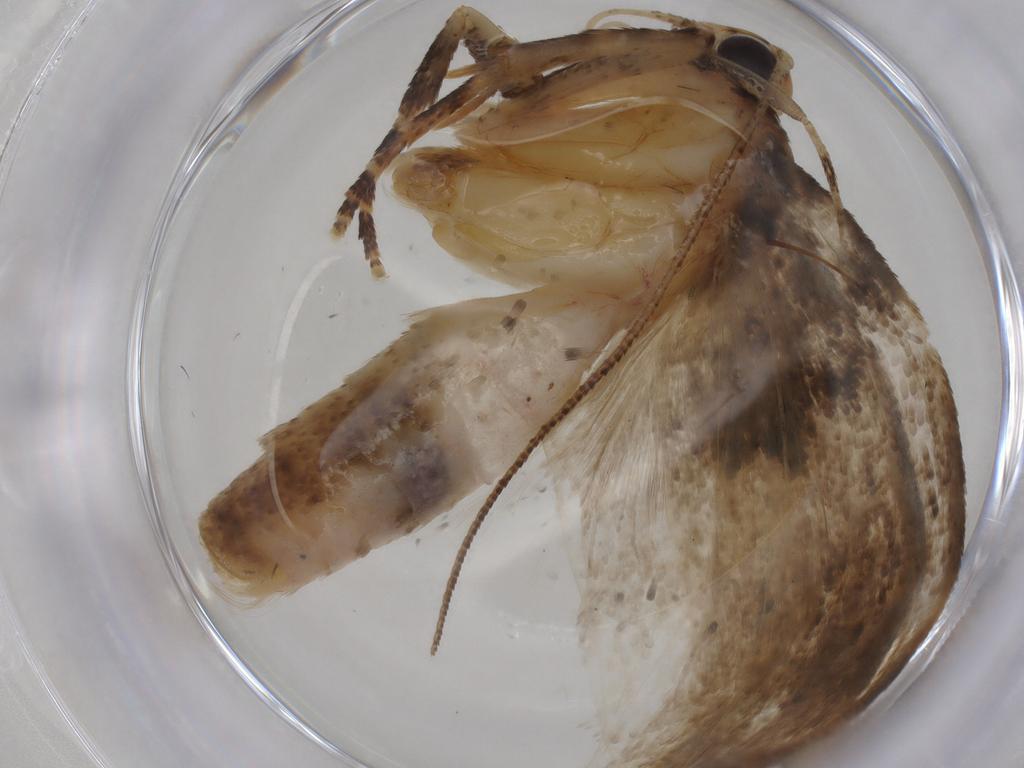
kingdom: Animalia
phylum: Arthropoda
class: Insecta
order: Lepidoptera
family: Gelechiidae
